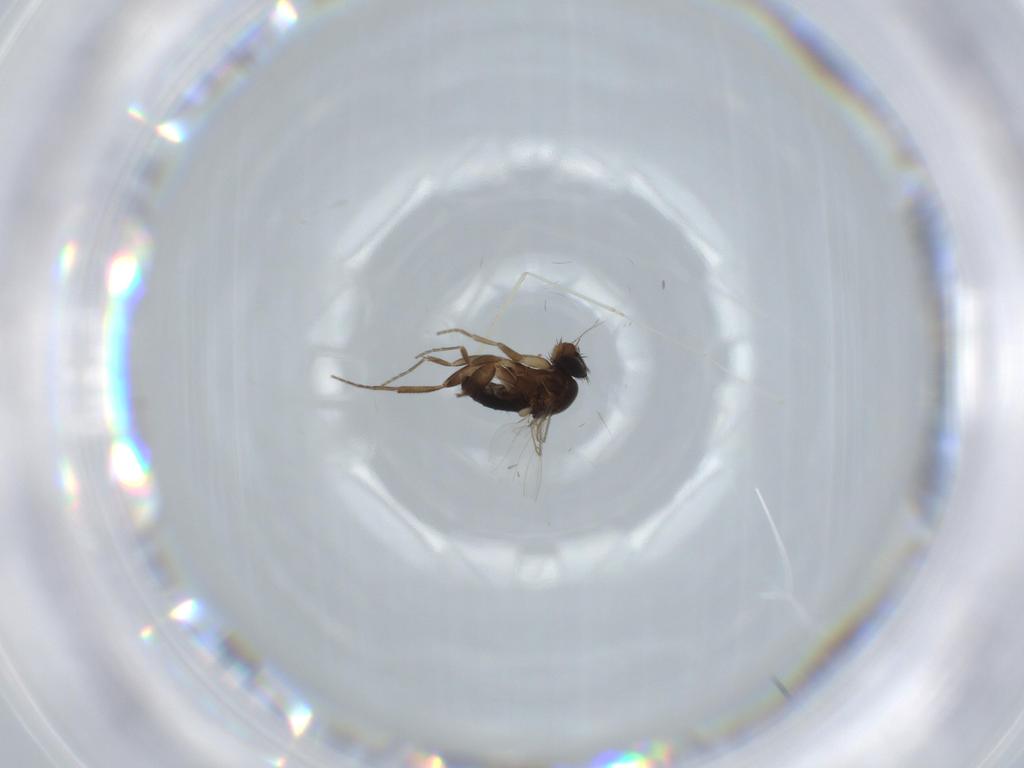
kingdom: Animalia
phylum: Arthropoda
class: Insecta
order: Diptera
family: Phoridae
